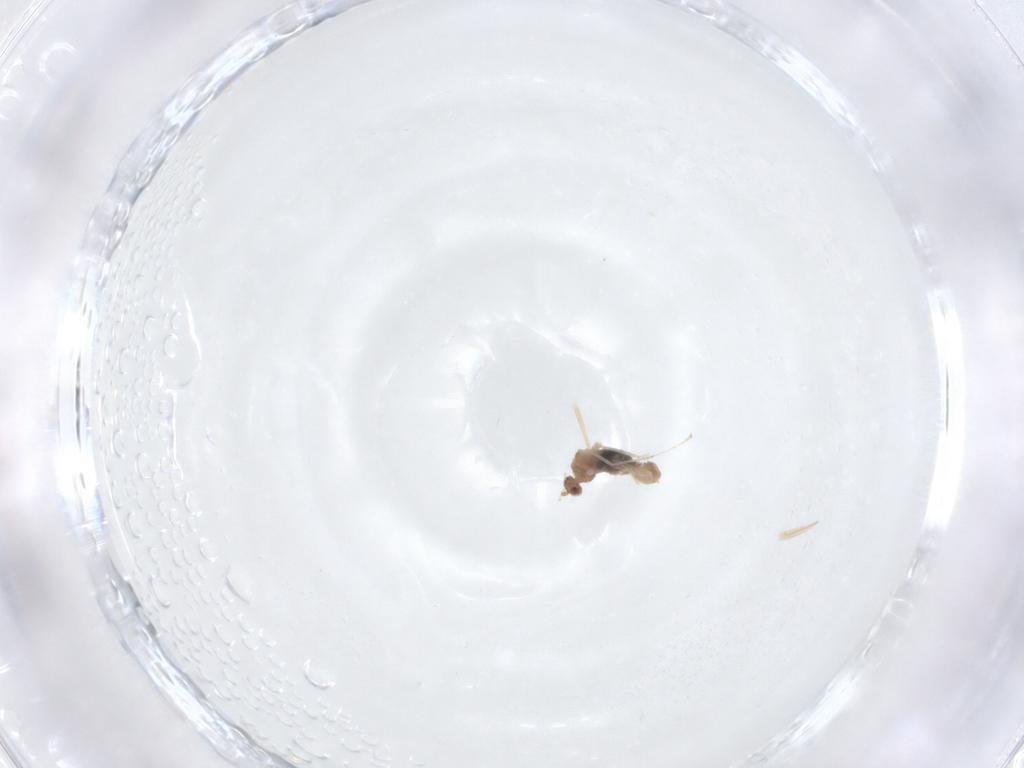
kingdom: Animalia
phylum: Arthropoda
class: Insecta
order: Diptera
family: Cecidomyiidae
